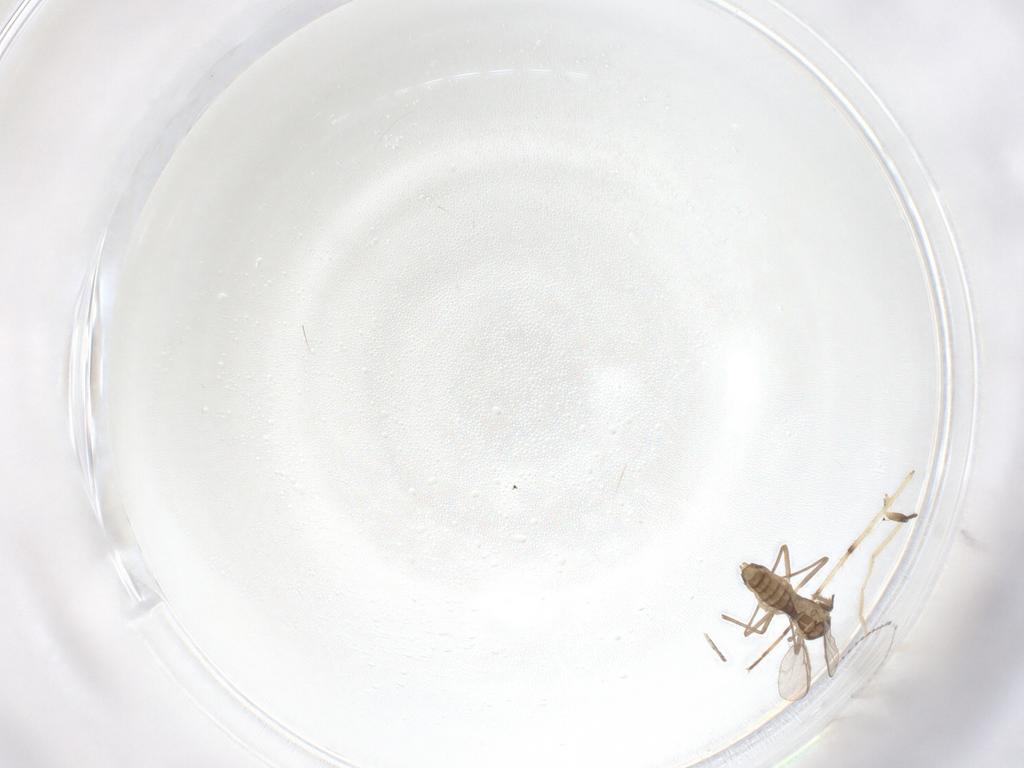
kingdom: Animalia
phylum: Arthropoda
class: Insecta
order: Diptera
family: Chironomidae
